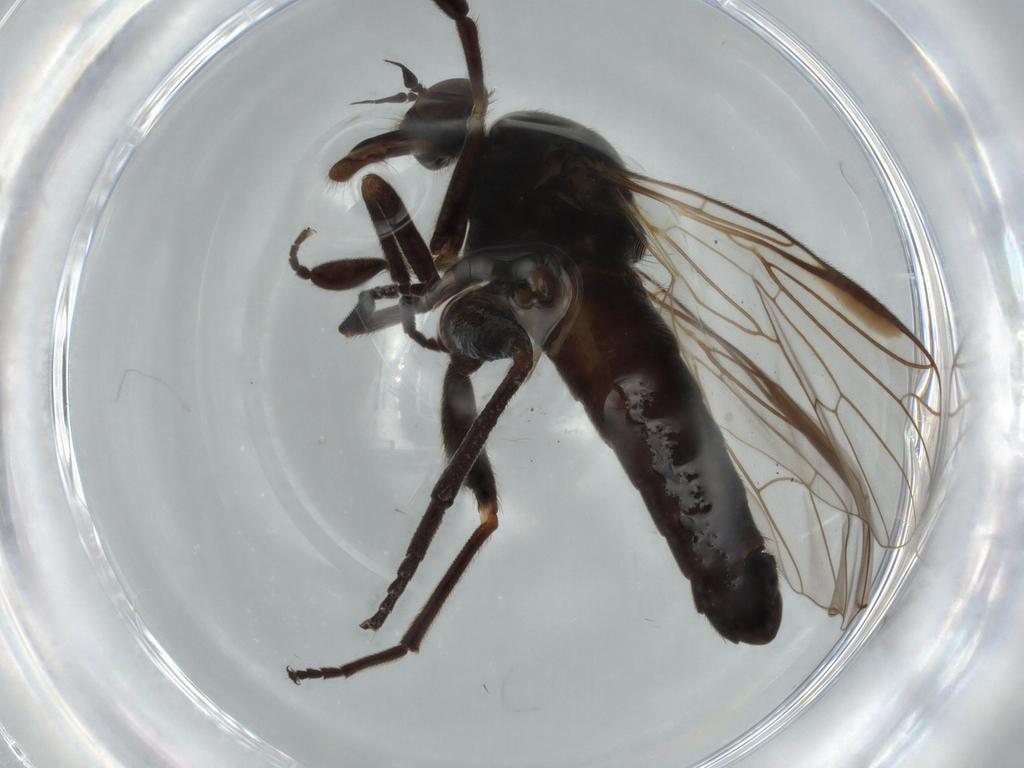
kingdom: Animalia
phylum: Arthropoda
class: Insecta
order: Diptera
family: Empididae
